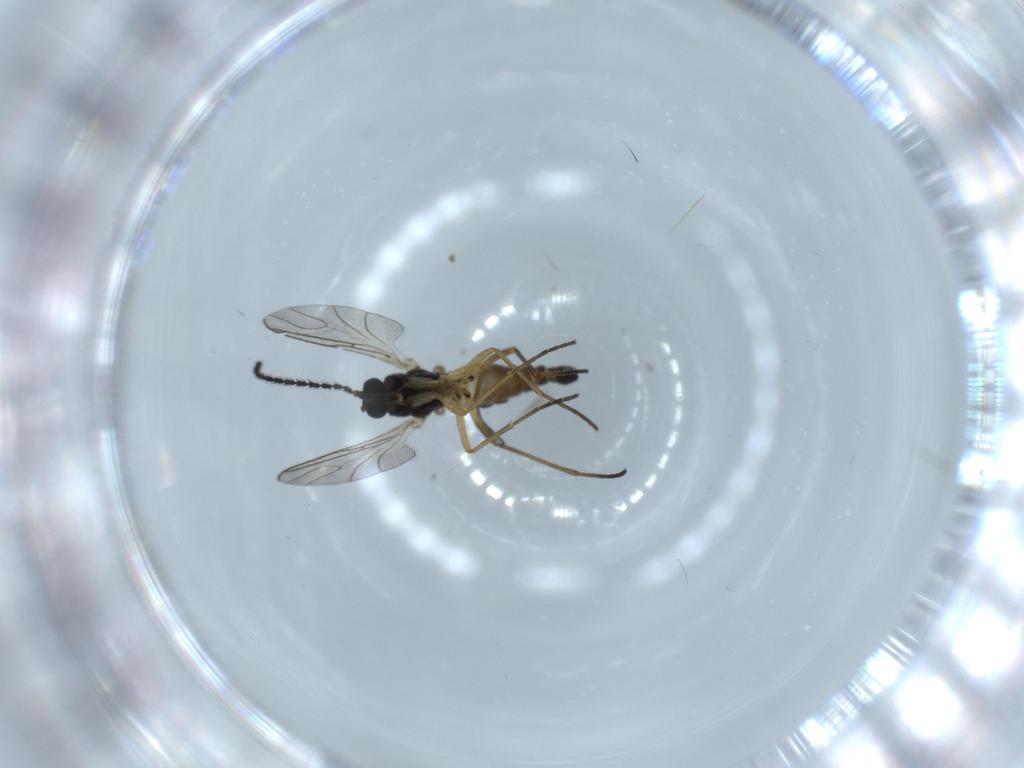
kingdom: Animalia
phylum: Arthropoda
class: Insecta
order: Diptera
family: Sciaridae
